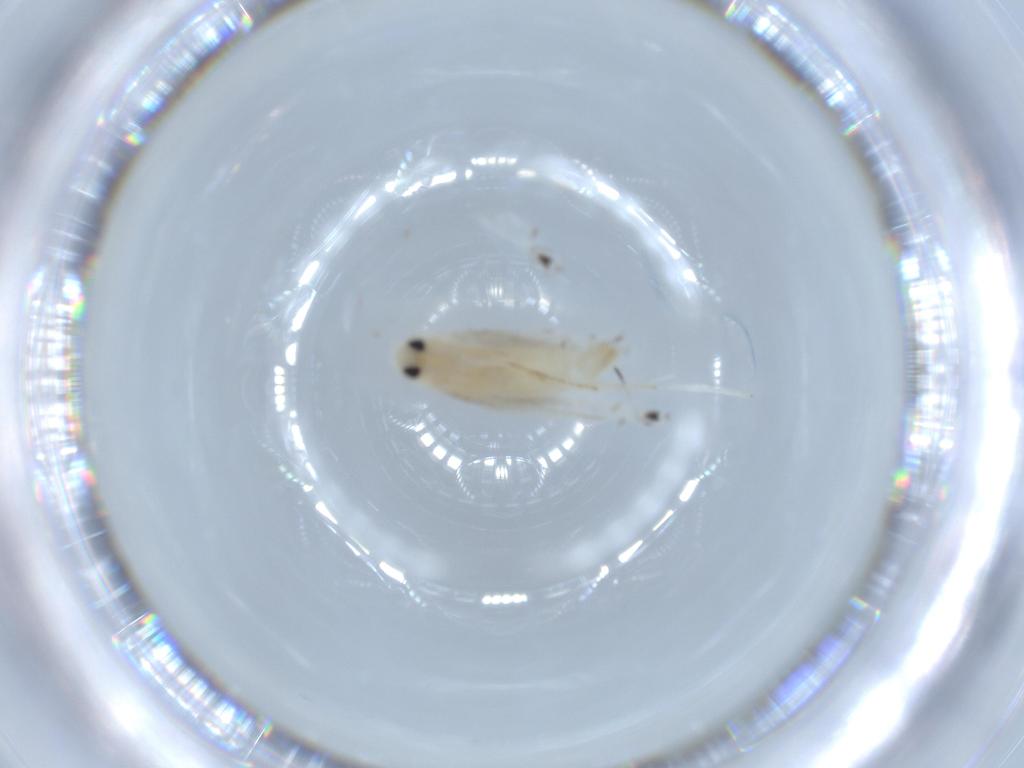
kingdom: Animalia
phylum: Arthropoda
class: Insecta
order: Lepidoptera
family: Gracillariidae
